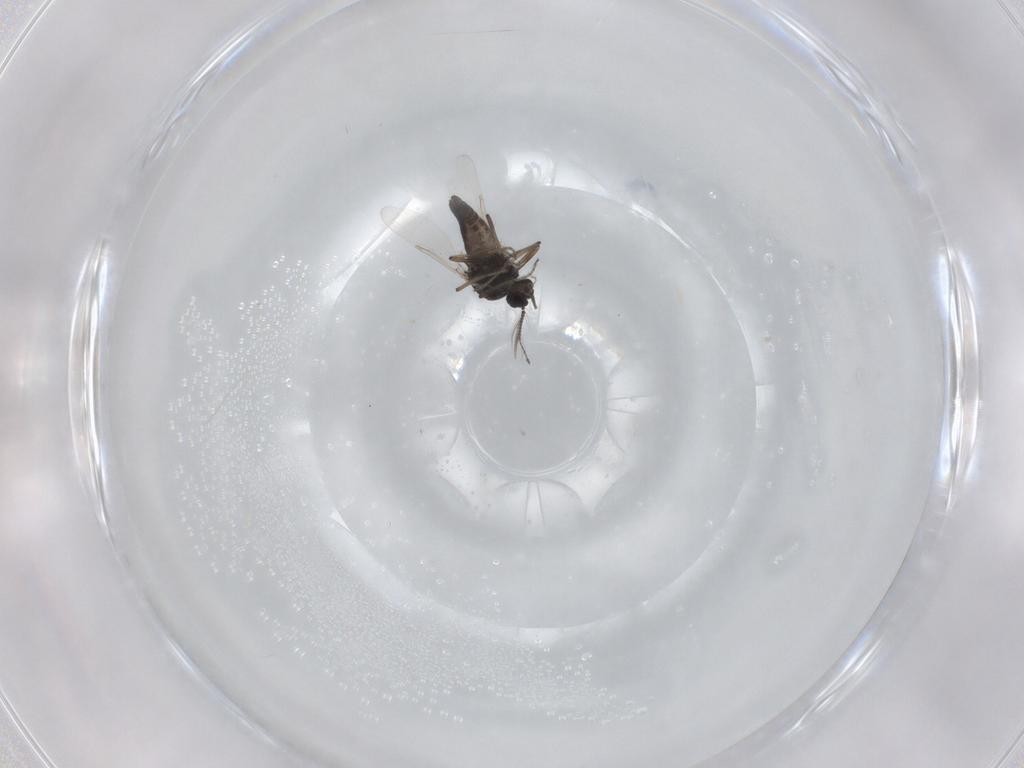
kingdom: Animalia
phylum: Arthropoda
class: Insecta
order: Diptera
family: Ceratopogonidae
